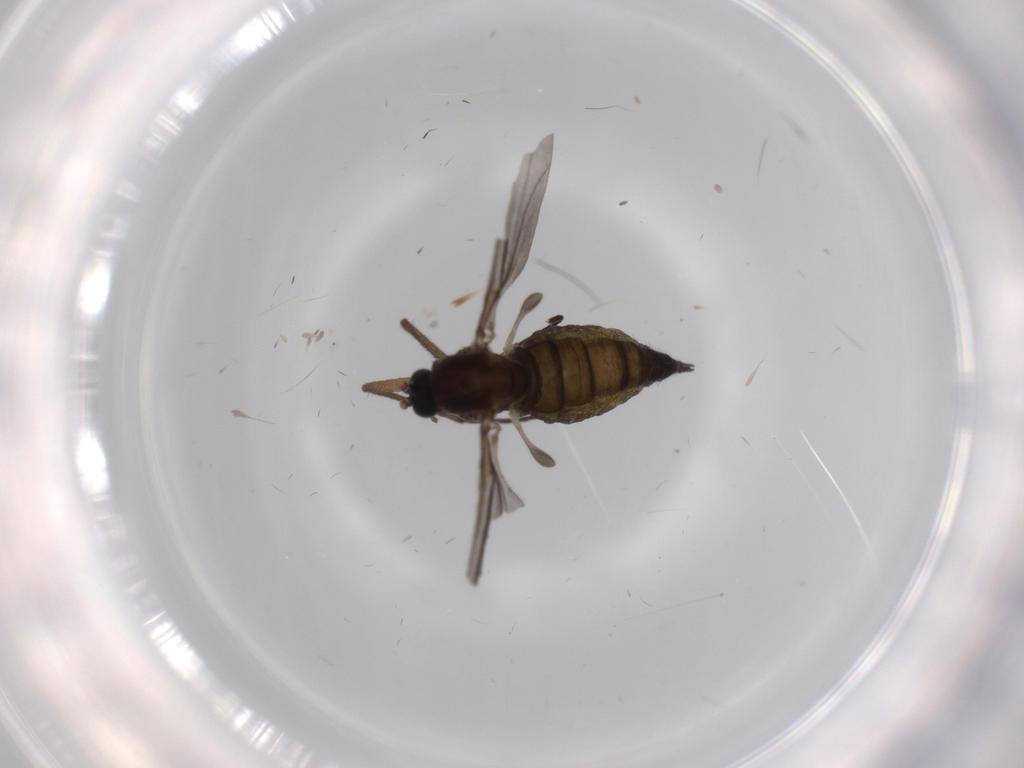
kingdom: Animalia
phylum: Arthropoda
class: Insecta
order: Diptera
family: Sciaridae
